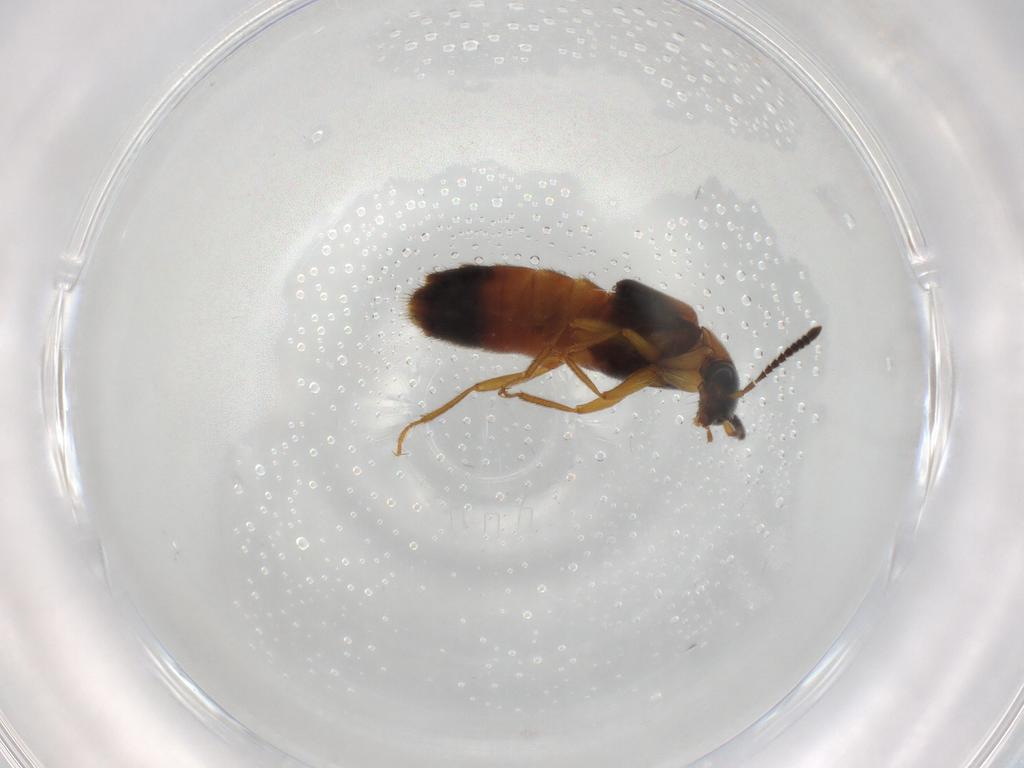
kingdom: Animalia
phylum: Arthropoda
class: Insecta
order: Coleoptera
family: Staphylinidae
